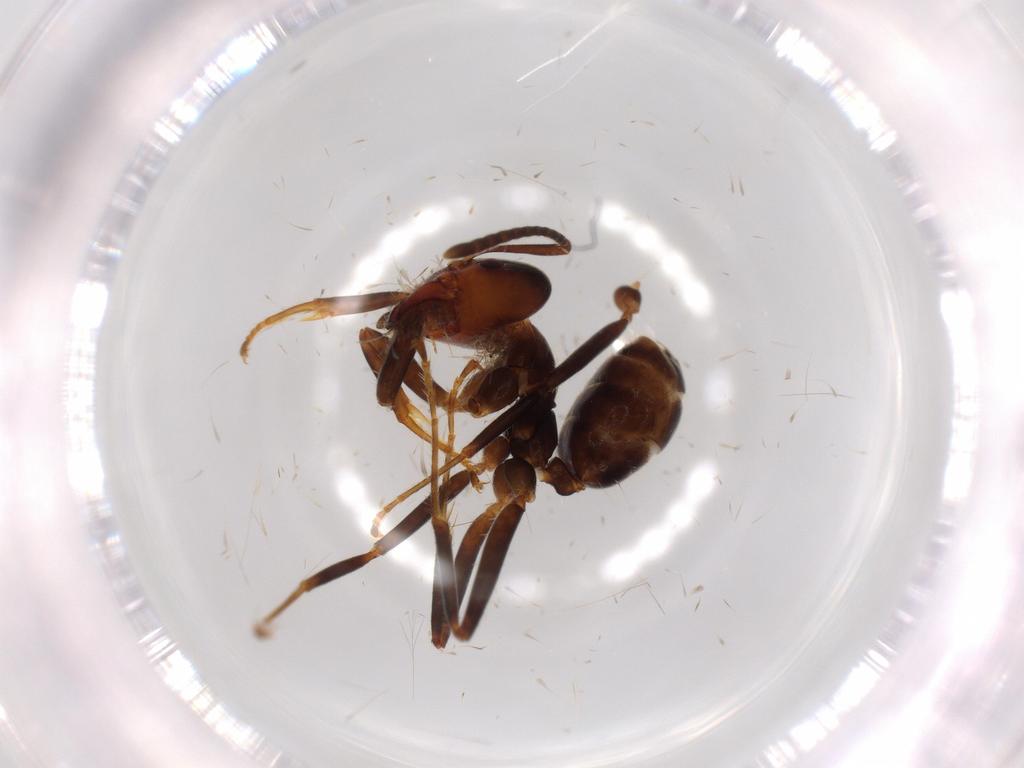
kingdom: Animalia
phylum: Arthropoda
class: Insecta
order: Hymenoptera
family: Formicidae
